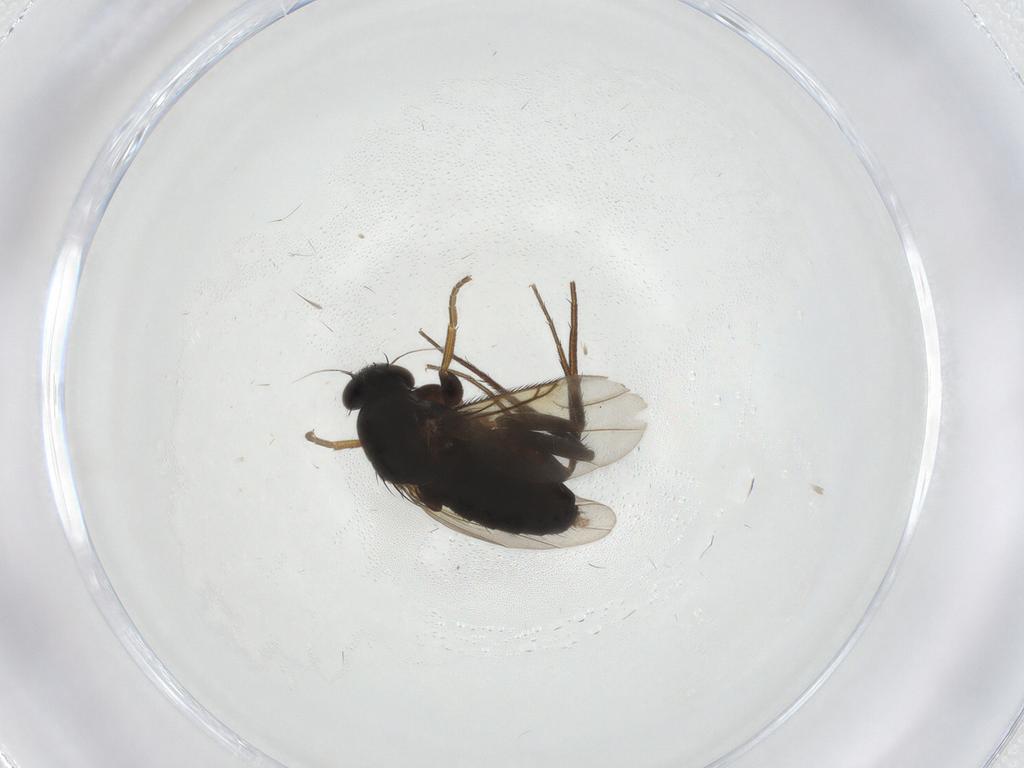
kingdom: Animalia
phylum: Arthropoda
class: Insecta
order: Diptera
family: Phoridae
